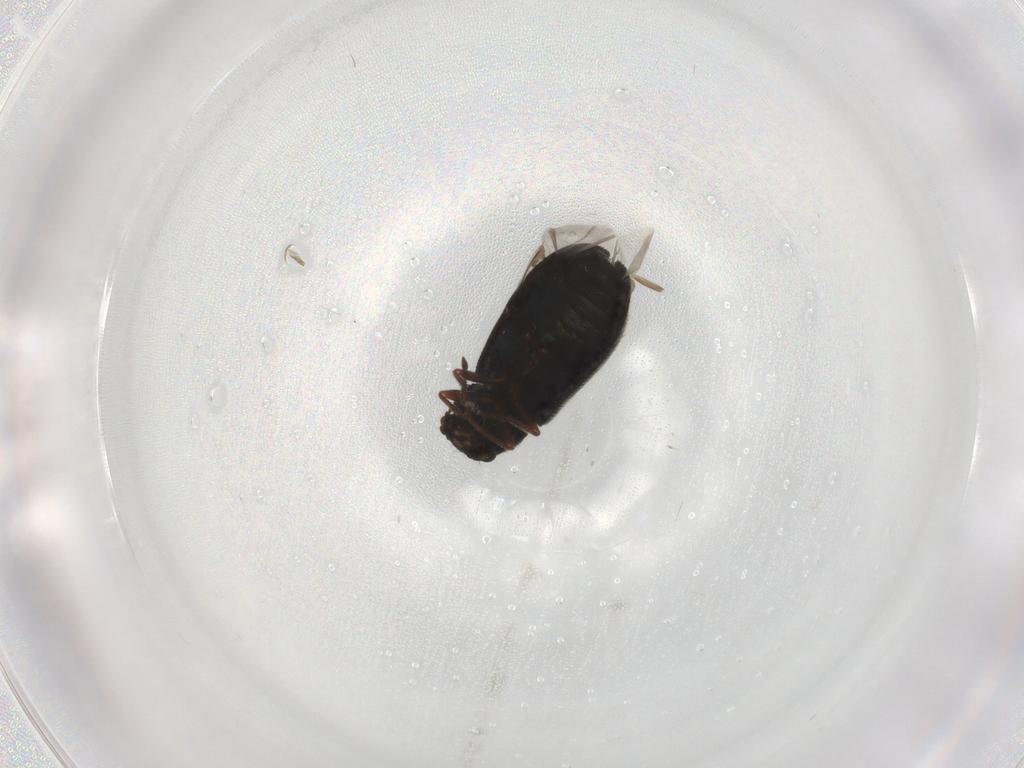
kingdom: Animalia
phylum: Arthropoda
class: Insecta
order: Coleoptera
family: Melyridae
